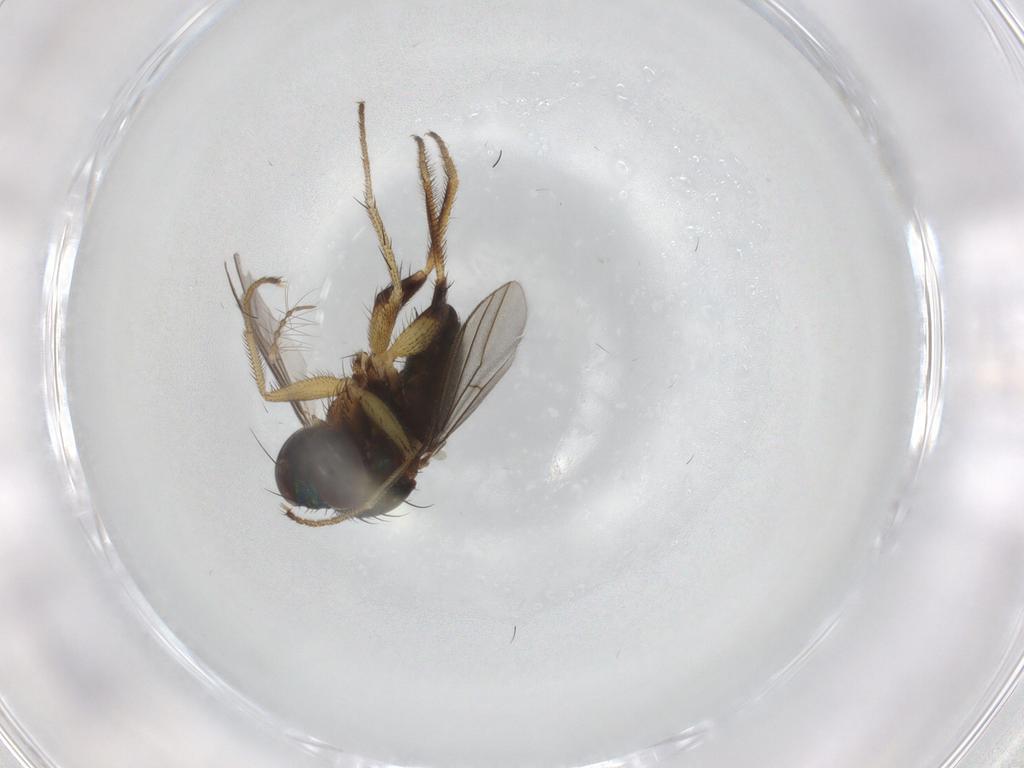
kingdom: Animalia
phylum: Arthropoda
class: Insecta
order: Diptera
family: Dolichopodidae
